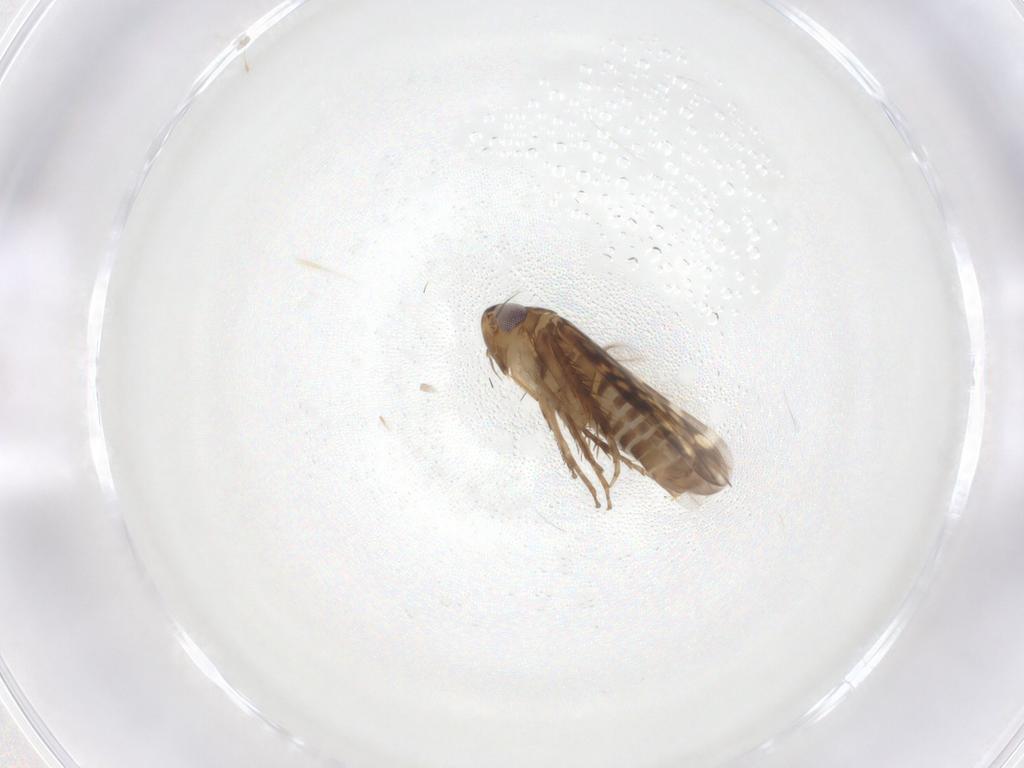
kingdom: Animalia
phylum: Arthropoda
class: Insecta
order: Hemiptera
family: Cicadellidae
